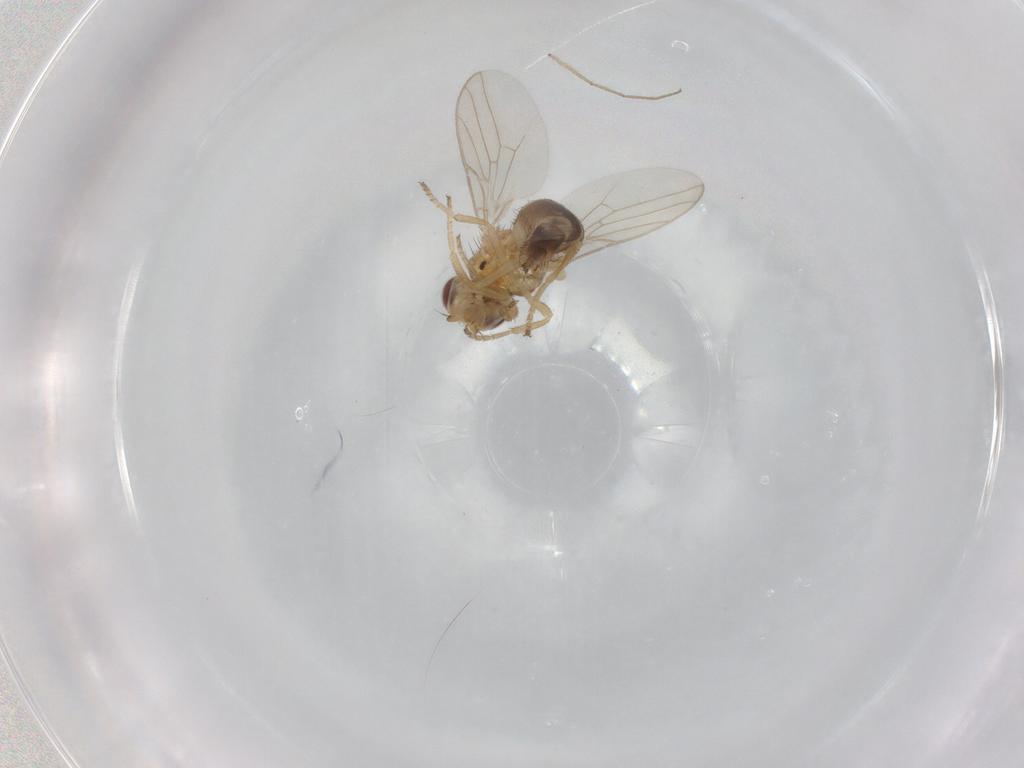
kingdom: Animalia
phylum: Arthropoda
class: Insecta
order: Diptera
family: Chloropidae
